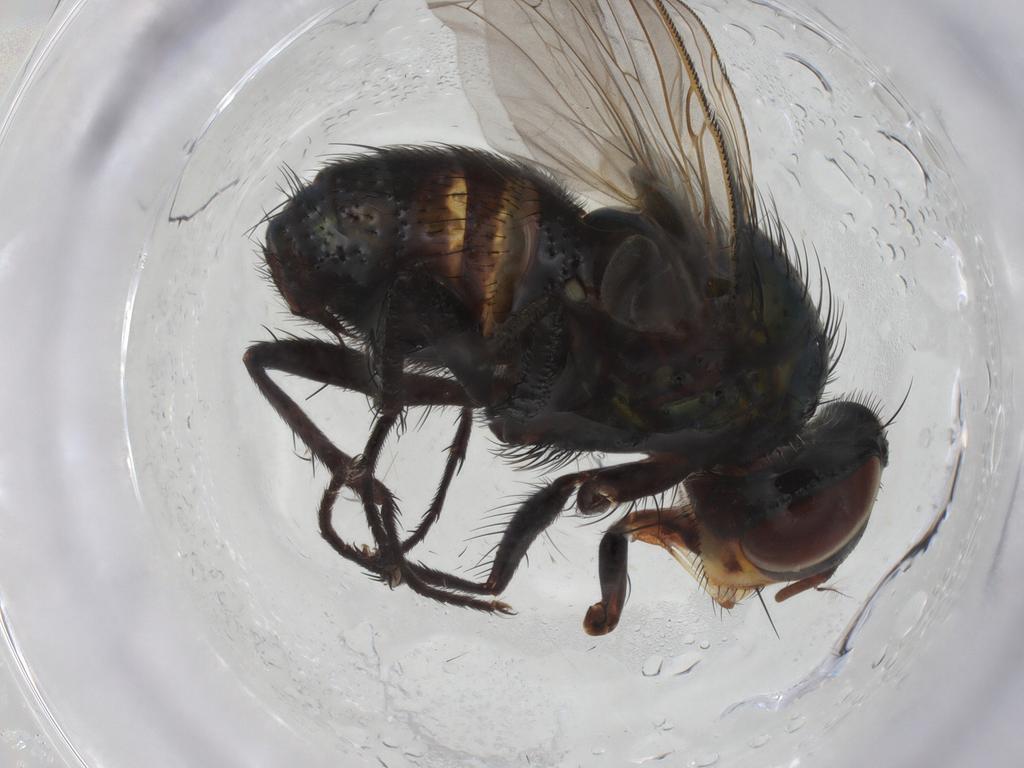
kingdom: Animalia
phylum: Arthropoda
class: Insecta
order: Diptera
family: Calliphoridae
